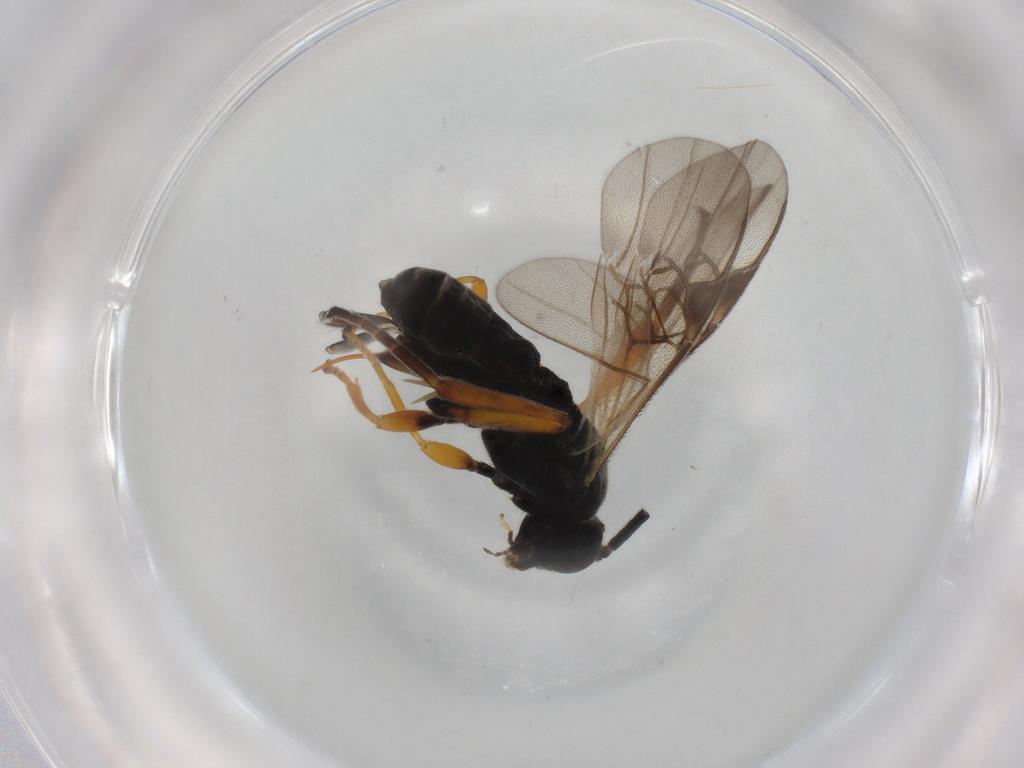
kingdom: Animalia
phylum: Arthropoda
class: Insecta
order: Hymenoptera
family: Braconidae
